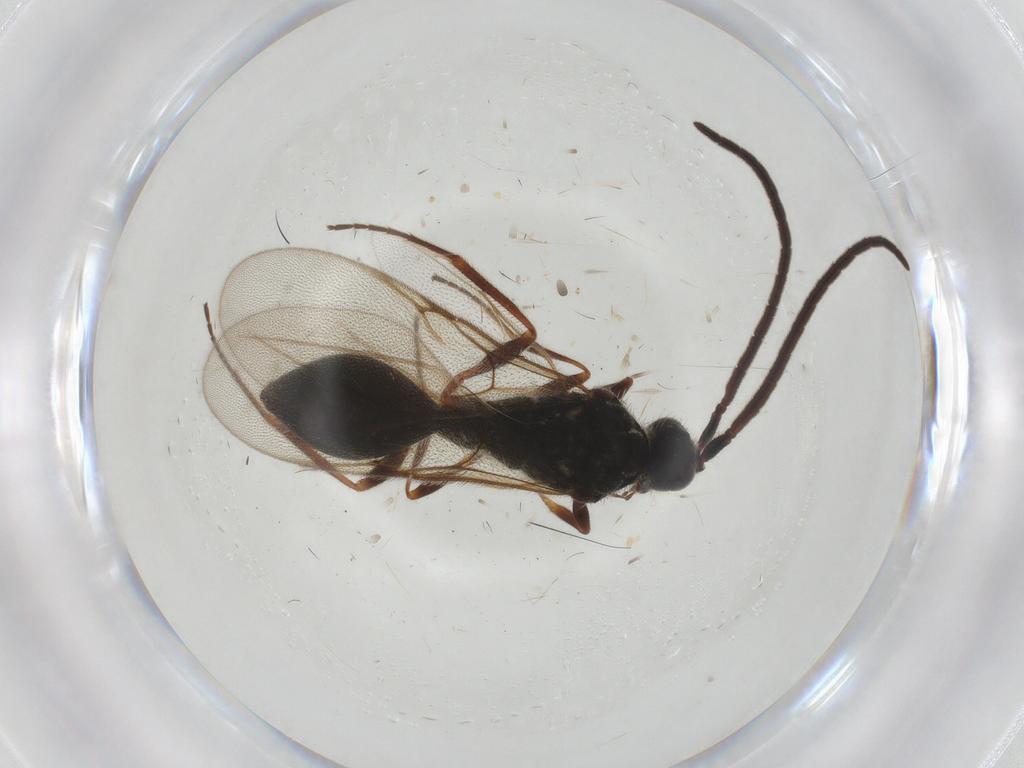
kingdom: Animalia
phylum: Arthropoda
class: Insecta
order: Hymenoptera
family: Diapriidae
